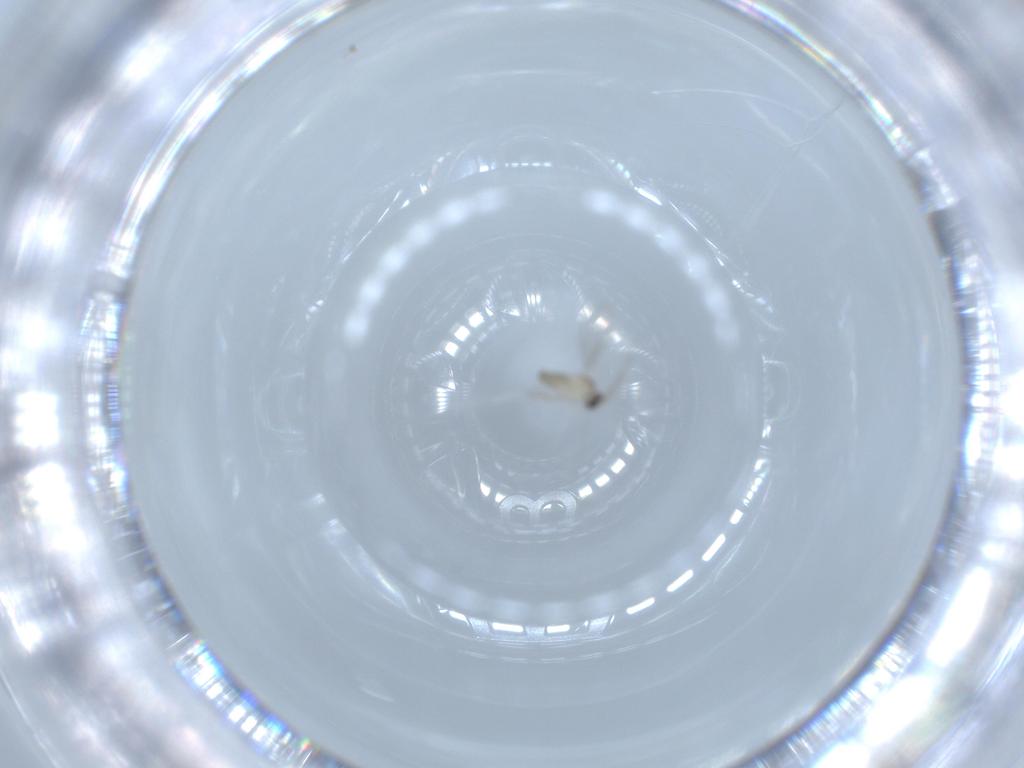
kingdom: Animalia
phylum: Arthropoda
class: Insecta
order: Diptera
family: Cecidomyiidae
